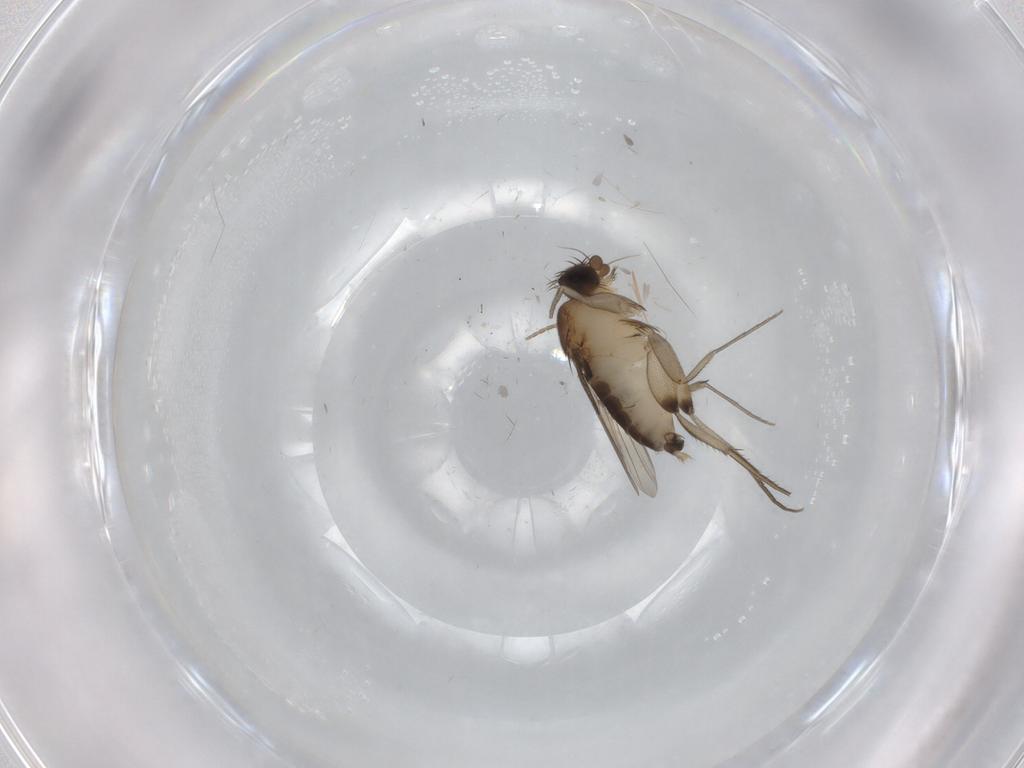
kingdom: Animalia
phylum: Arthropoda
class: Insecta
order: Diptera
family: Phoridae
